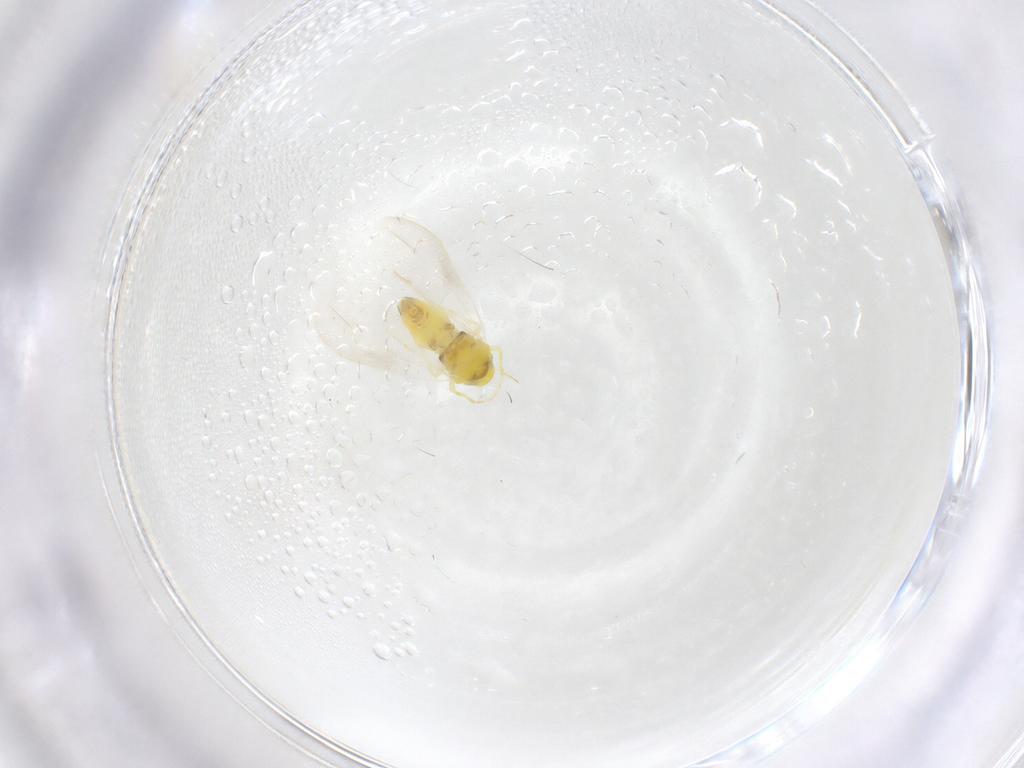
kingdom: Animalia
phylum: Arthropoda
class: Insecta
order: Hemiptera
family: Aleyrodidae
